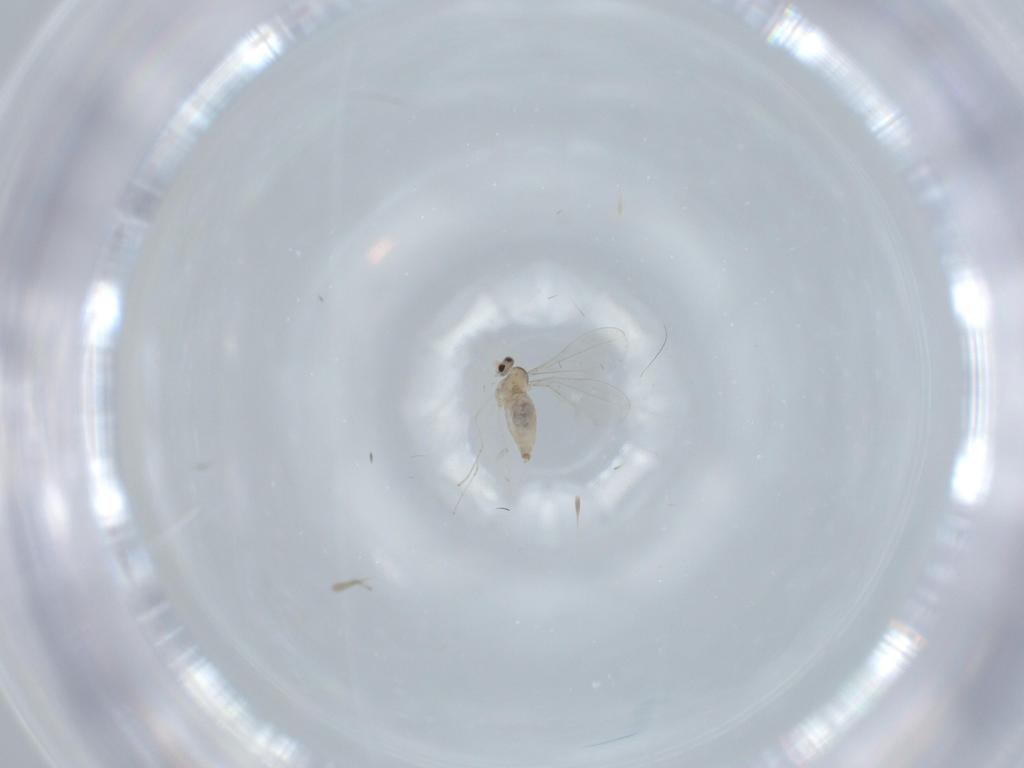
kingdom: Animalia
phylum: Arthropoda
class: Insecta
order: Diptera
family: Cecidomyiidae
